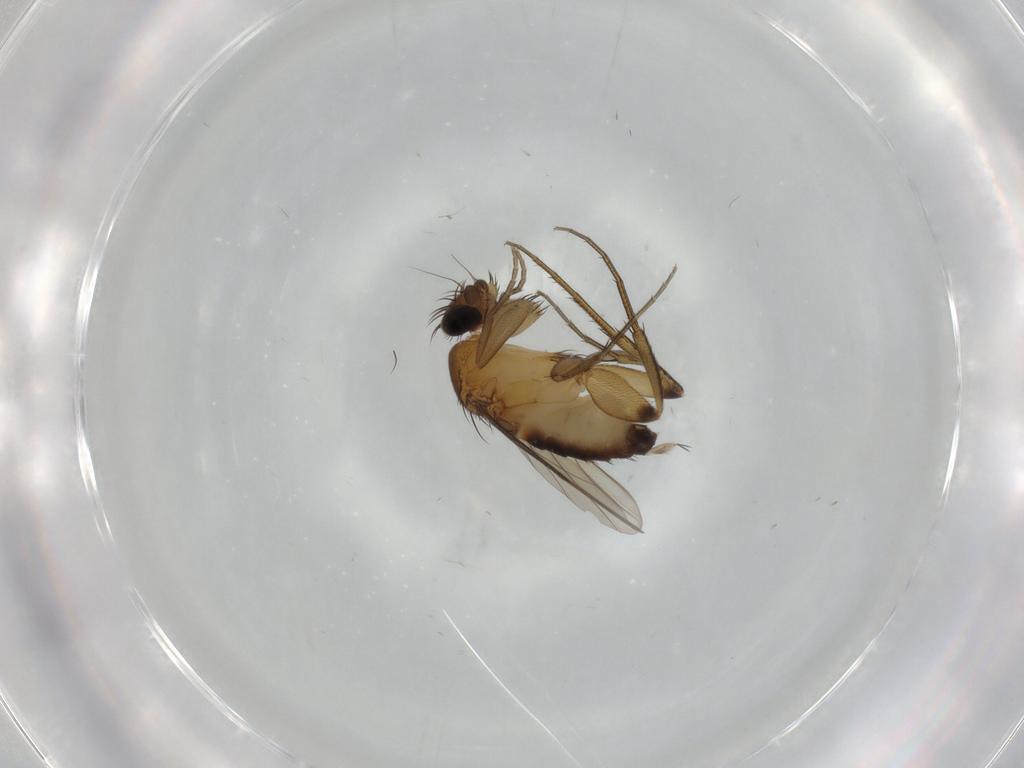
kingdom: Animalia
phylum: Arthropoda
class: Insecta
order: Diptera
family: Phoridae
